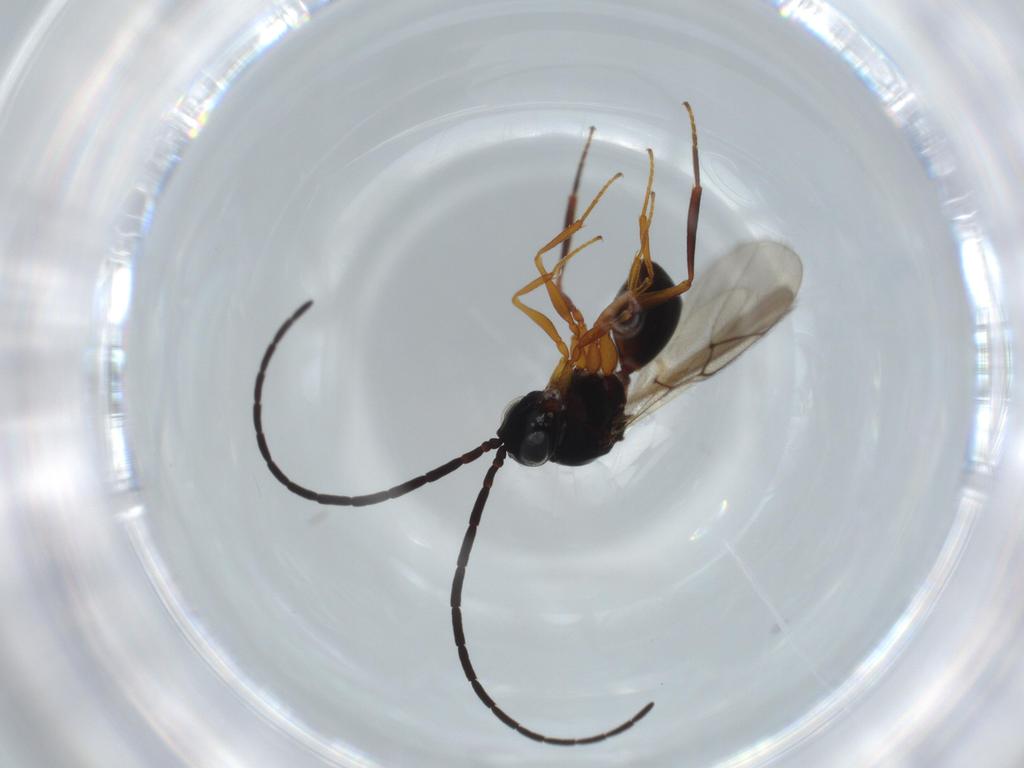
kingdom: Animalia
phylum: Arthropoda
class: Insecta
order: Hymenoptera
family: Figitidae
